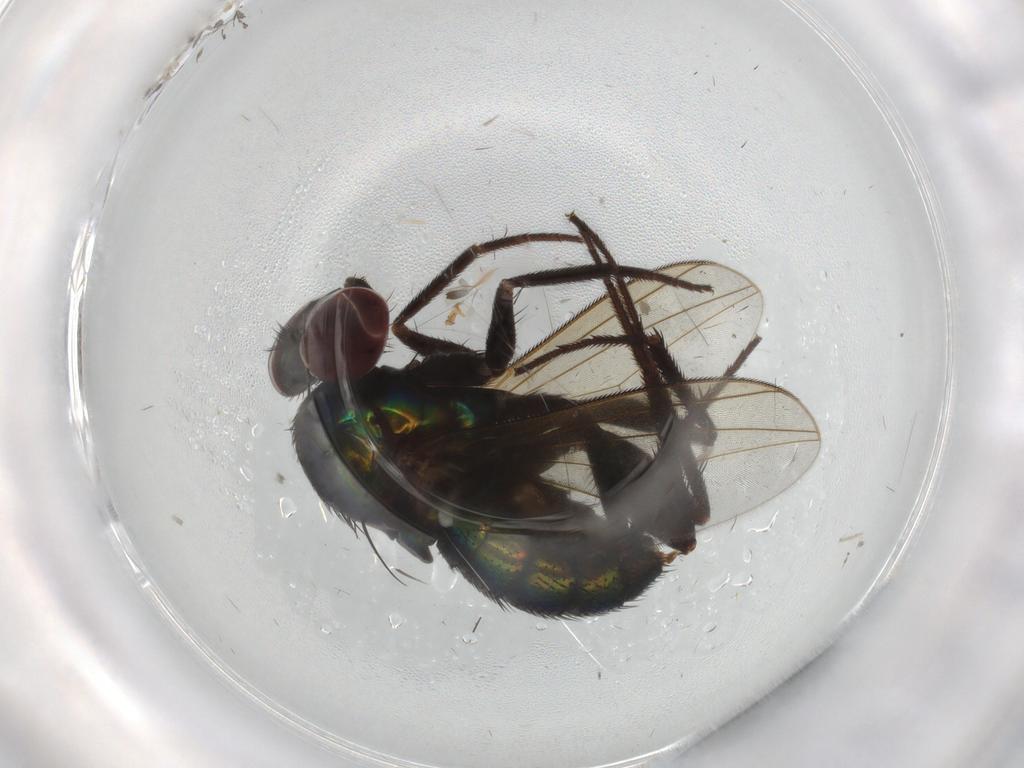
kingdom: Animalia
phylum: Arthropoda
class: Insecta
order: Diptera
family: Dolichopodidae
